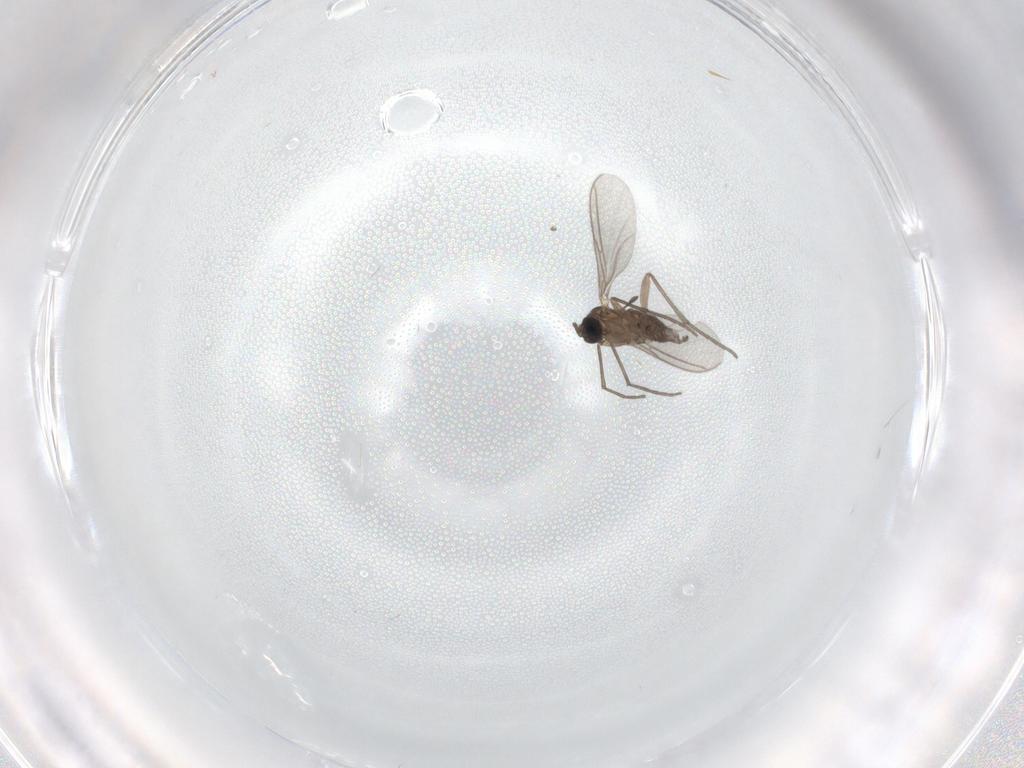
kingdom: Animalia
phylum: Arthropoda
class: Insecta
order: Diptera
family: Sciaridae
